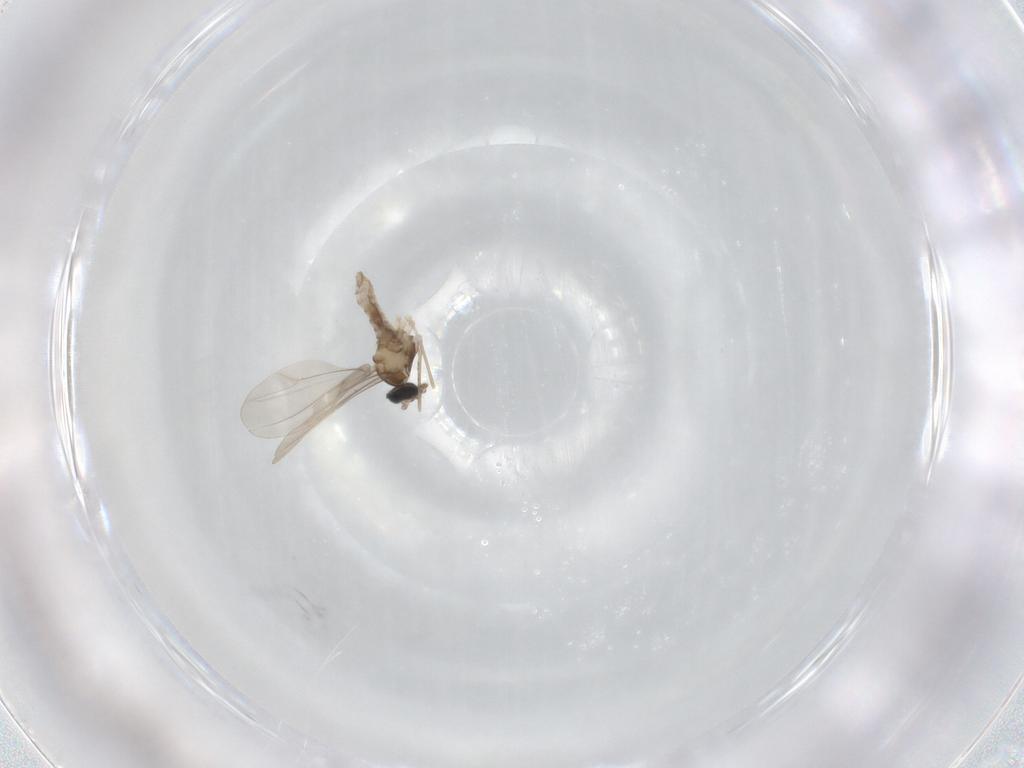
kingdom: Animalia
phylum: Arthropoda
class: Insecta
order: Diptera
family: Cecidomyiidae
